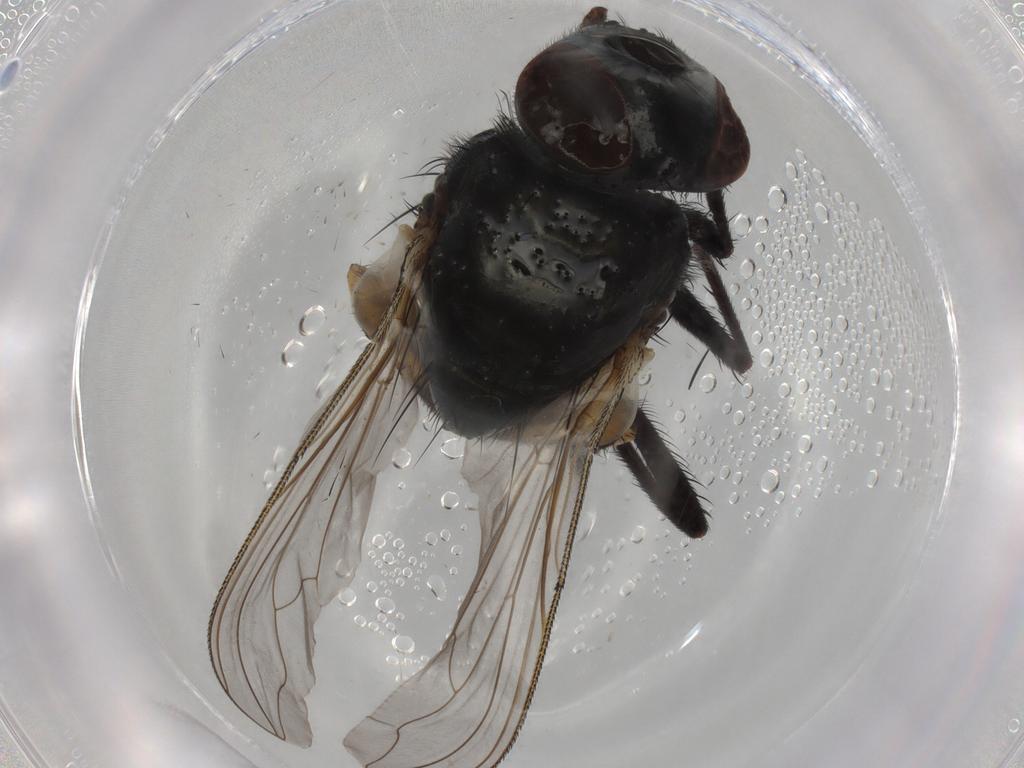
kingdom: Animalia
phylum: Arthropoda
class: Insecta
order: Diptera
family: Muscidae
